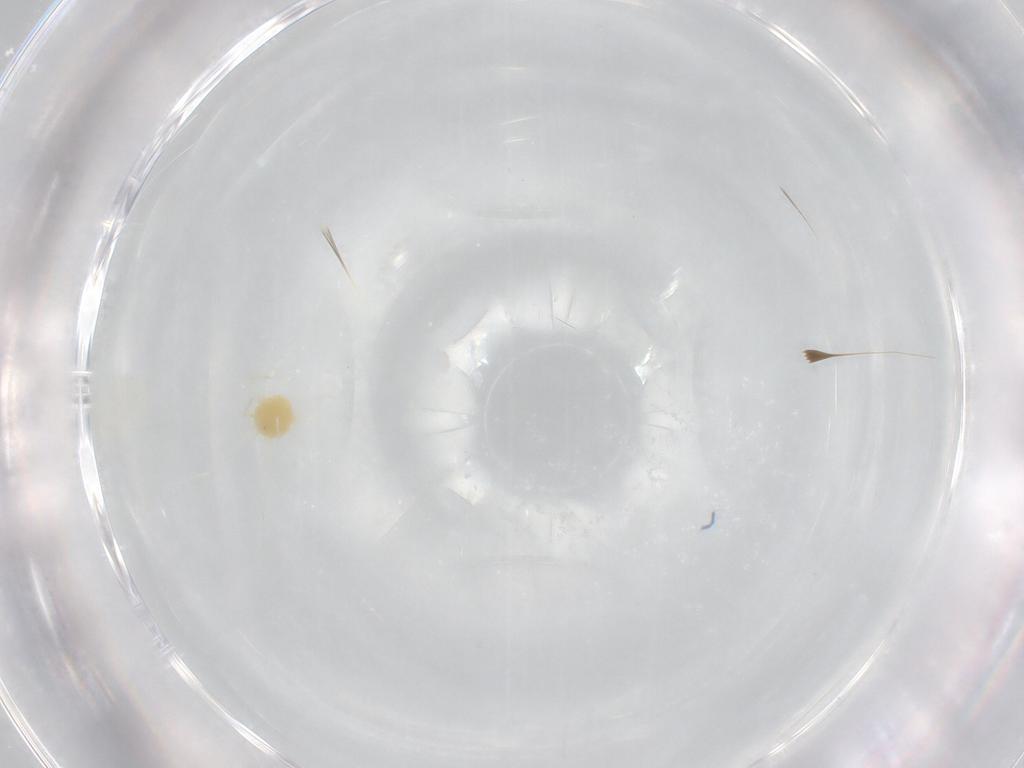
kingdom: Animalia
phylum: Arthropoda
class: Arachnida
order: Trombidiformes
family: Tetranychidae
